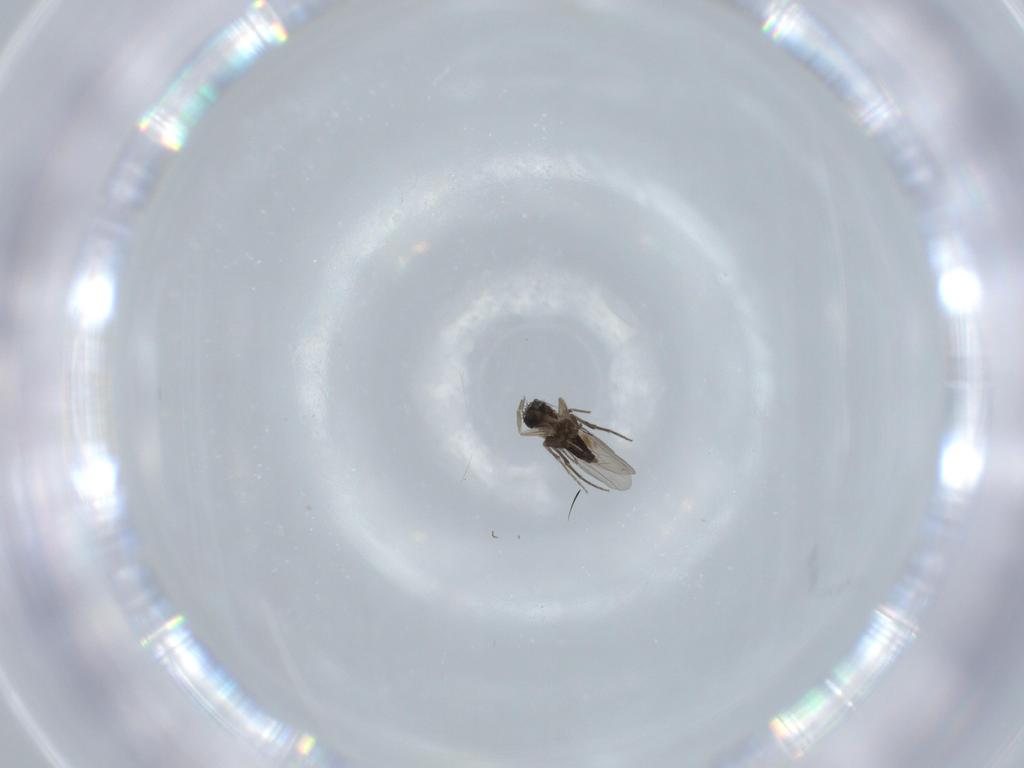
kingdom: Animalia
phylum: Arthropoda
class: Insecta
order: Diptera
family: Phoridae
